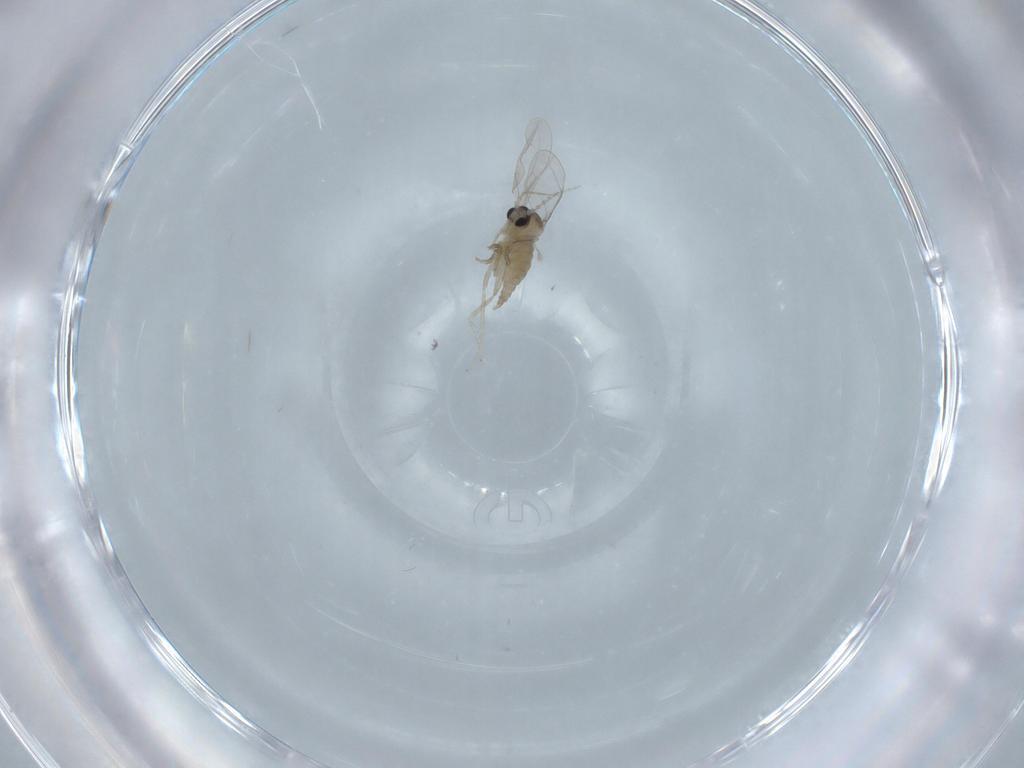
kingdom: Animalia
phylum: Arthropoda
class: Insecta
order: Diptera
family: Cecidomyiidae
